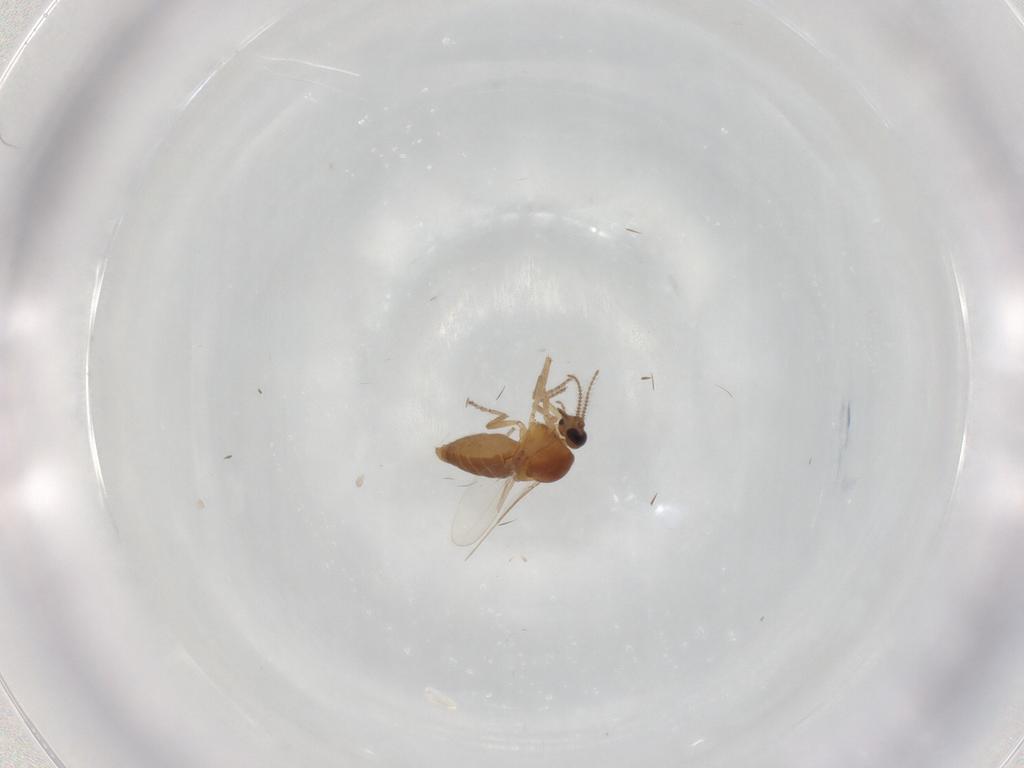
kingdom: Animalia
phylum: Arthropoda
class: Insecta
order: Diptera
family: Ceratopogonidae
